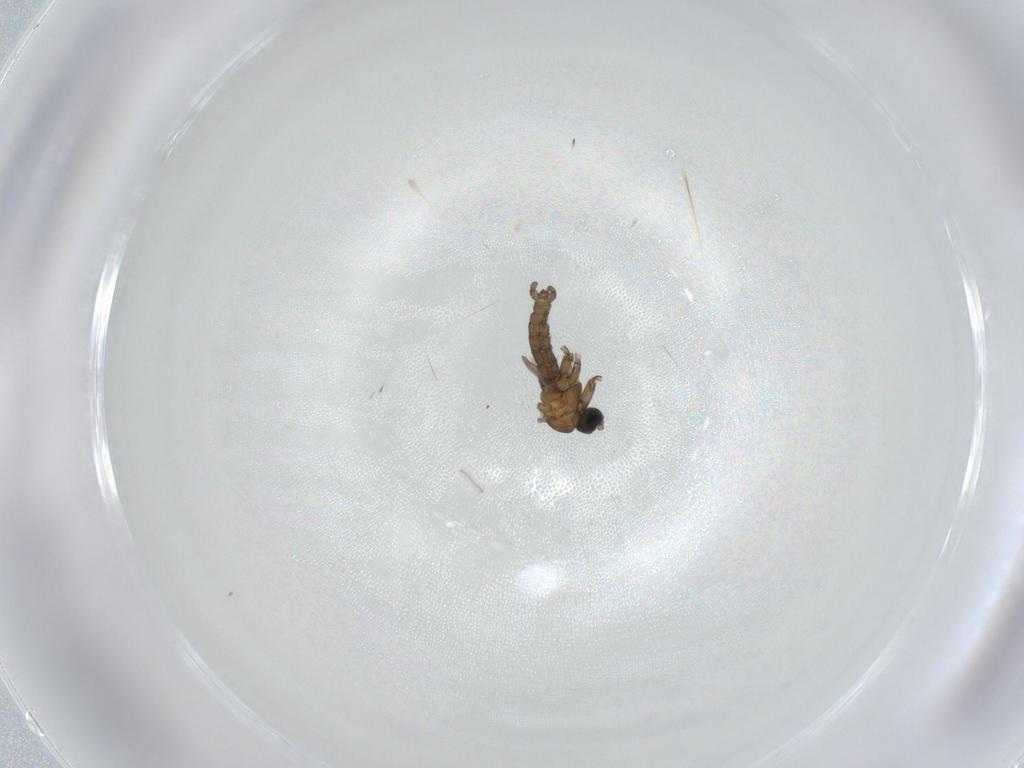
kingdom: Animalia
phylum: Arthropoda
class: Insecta
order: Diptera
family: Sciaridae
